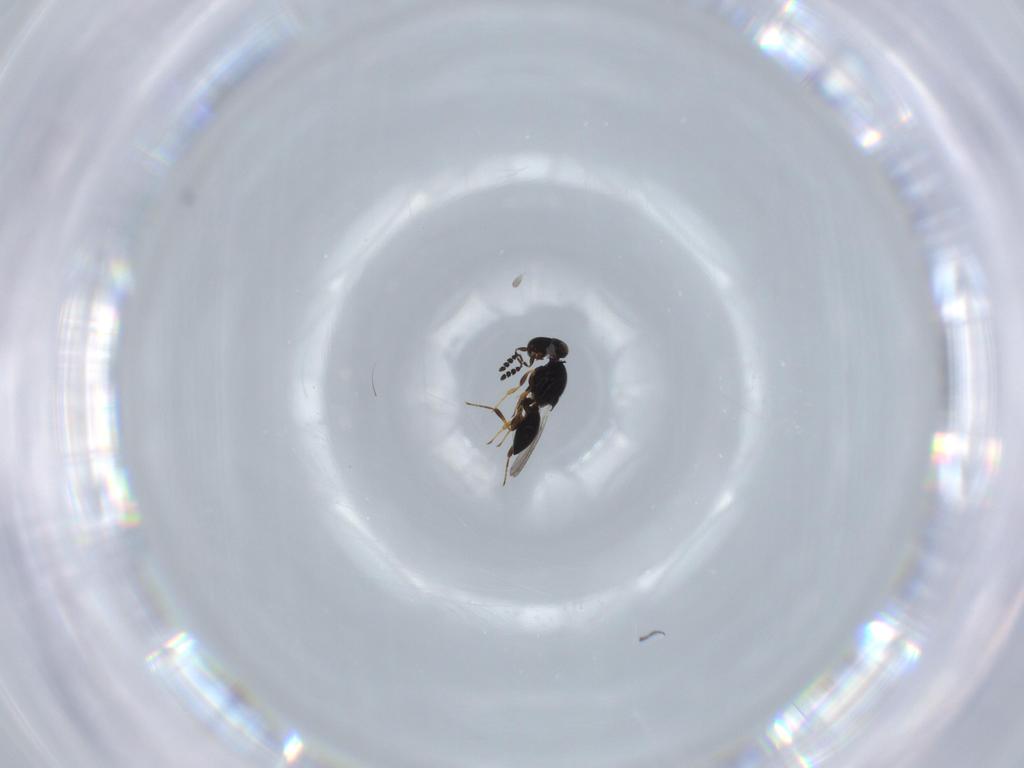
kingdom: Animalia
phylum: Arthropoda
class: Insecta
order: Hymenoptera
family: Platygastridae
